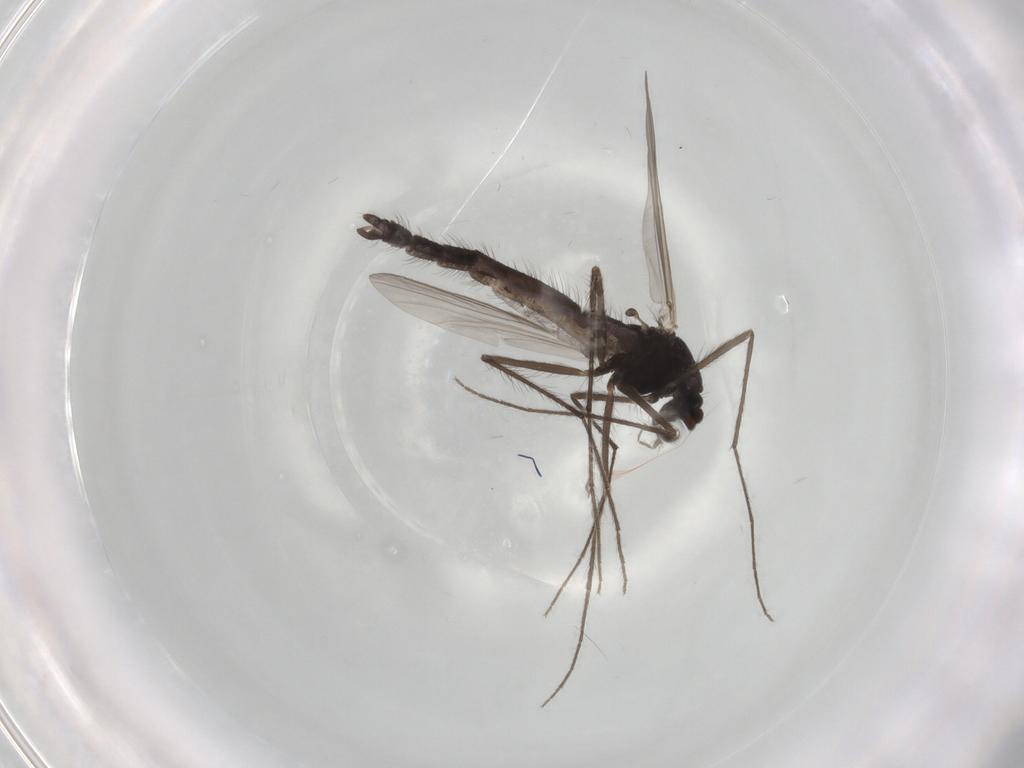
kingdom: Animalia
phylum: Arthropoda
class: Insecta
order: Diptera
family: Chironomidae
